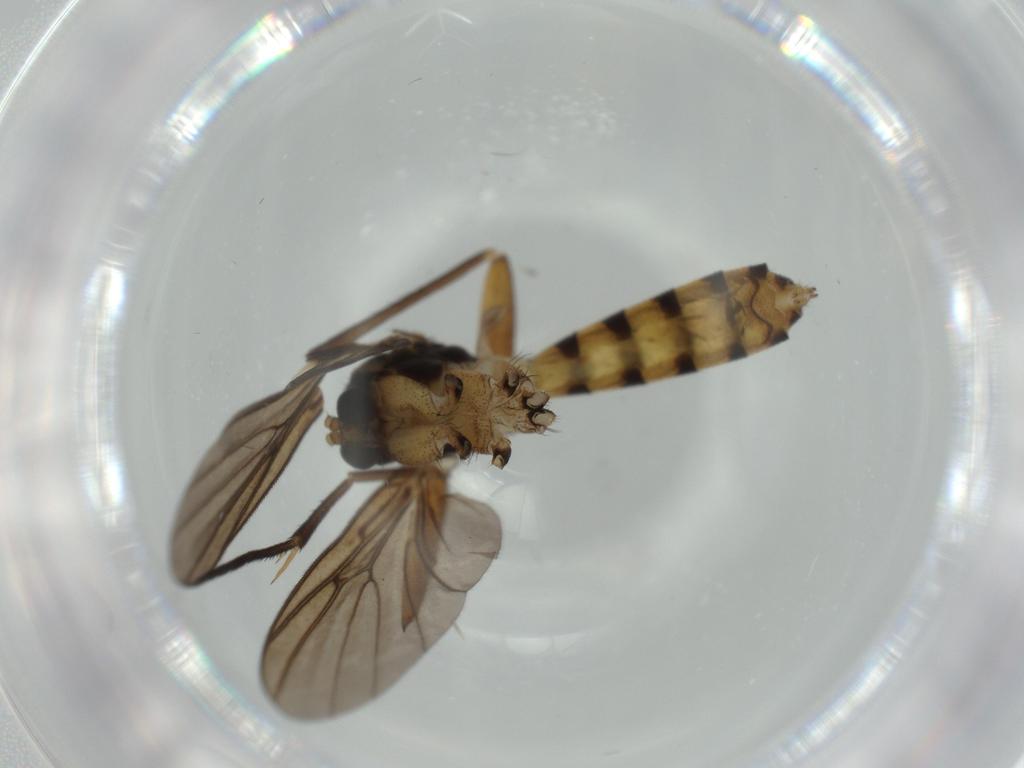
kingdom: Animalia
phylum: Arthropoda
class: Insecta
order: Diptera
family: Mycetophilidae
